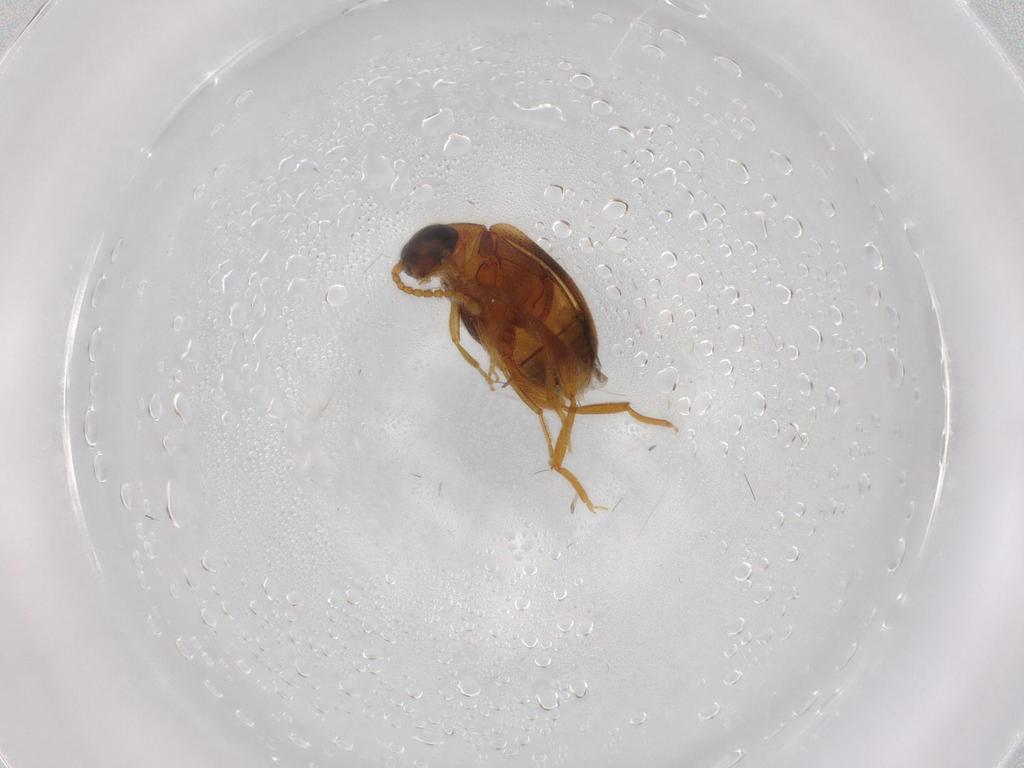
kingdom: Animalia
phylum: Arthropoda
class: Insecta
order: Coleoptera
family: Aderidae
